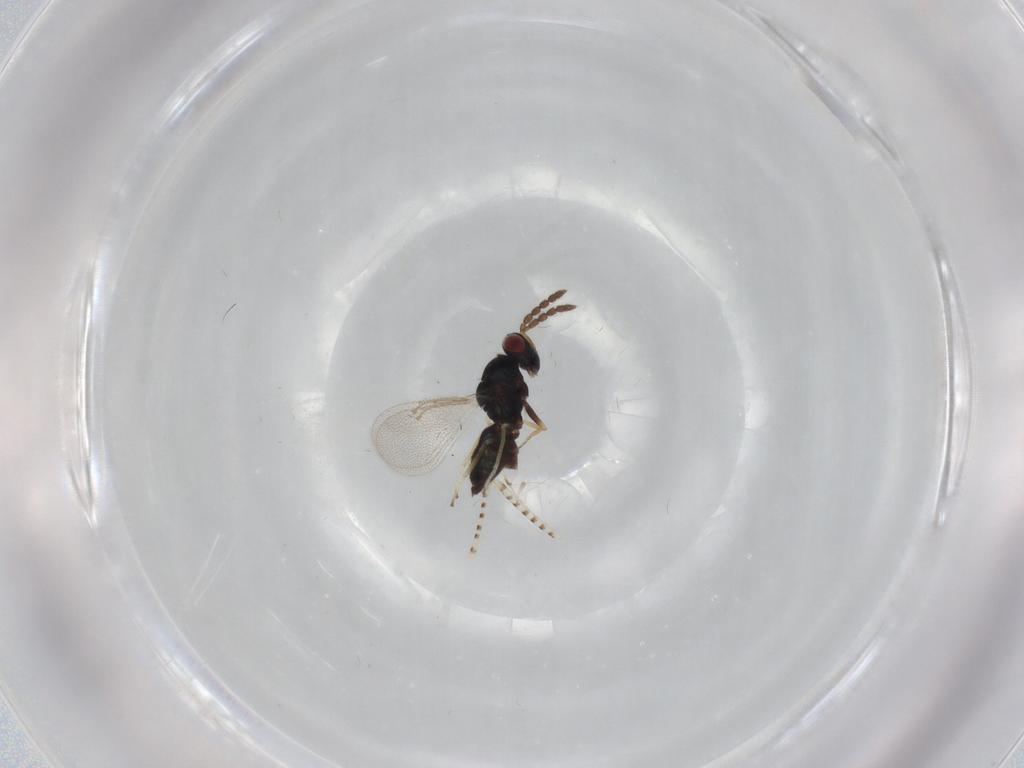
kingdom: Animalia
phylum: Arthropoda
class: Insecta
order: Hymenoptera
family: Eulophidae
